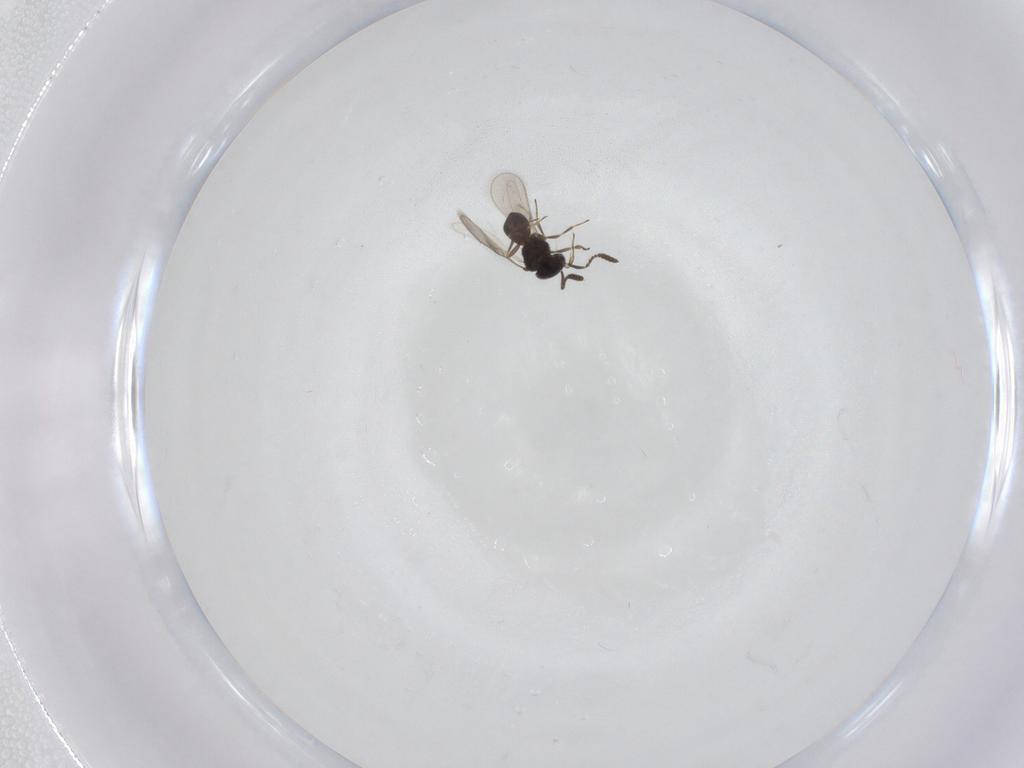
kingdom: Animalia
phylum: Arthropoda
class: Insecta
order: Hymenoptera
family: Scelionidae
